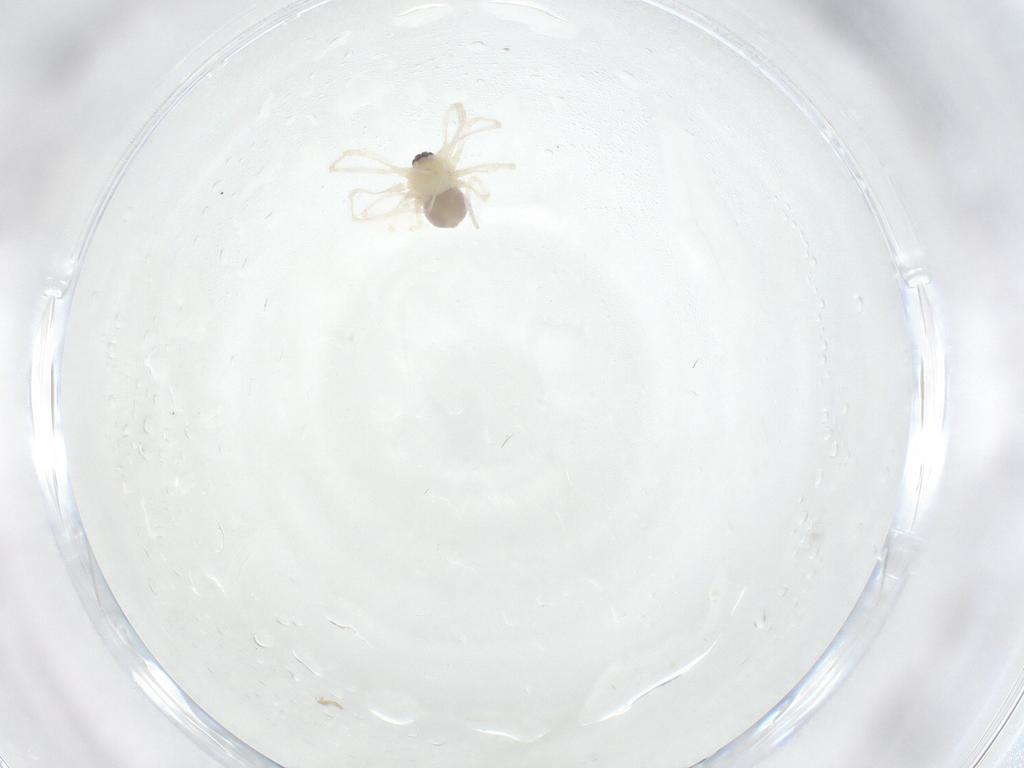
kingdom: Animalia
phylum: Arthropoda
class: Arachnida
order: Araneae
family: Pholcidae
